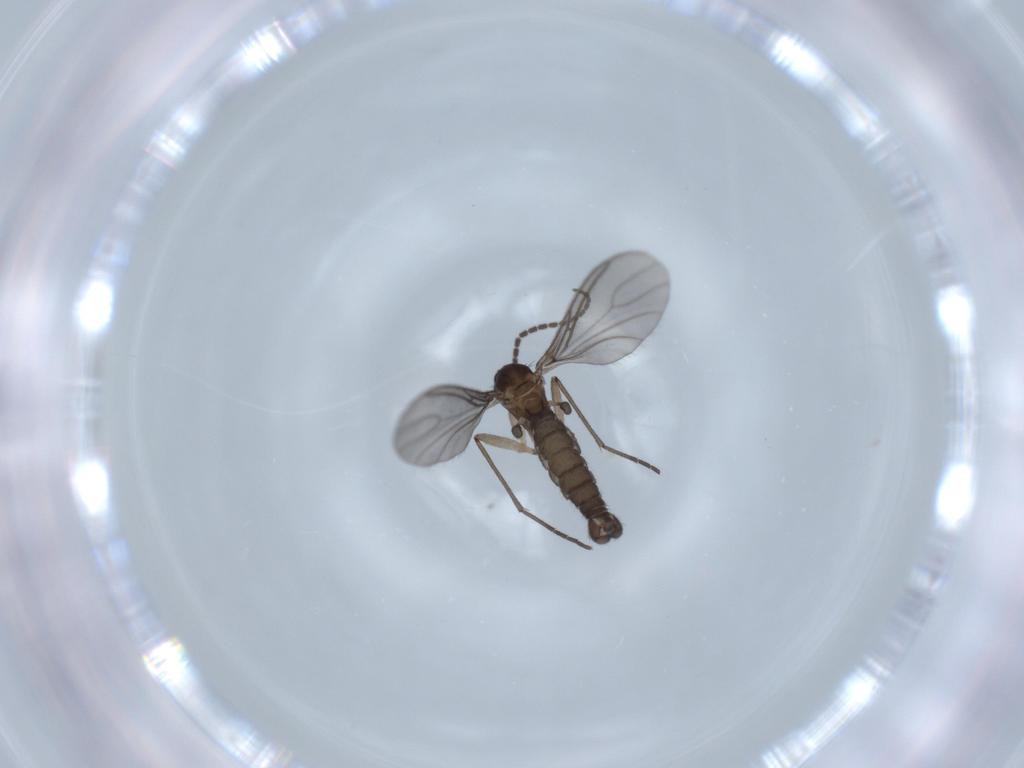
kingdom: Animalia
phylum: Arthropoda
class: Insecta
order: Diptera
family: Sciaridae
